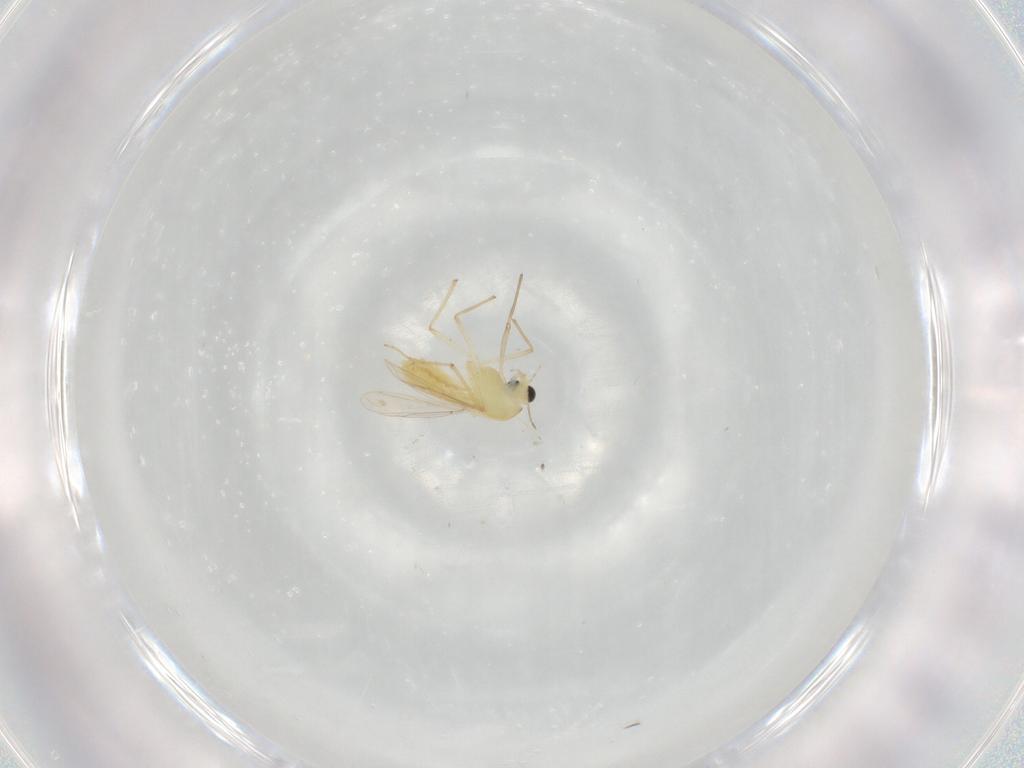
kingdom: Animalia
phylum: Arthropoda
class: Insecta
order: Diptera
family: Chironomidae
